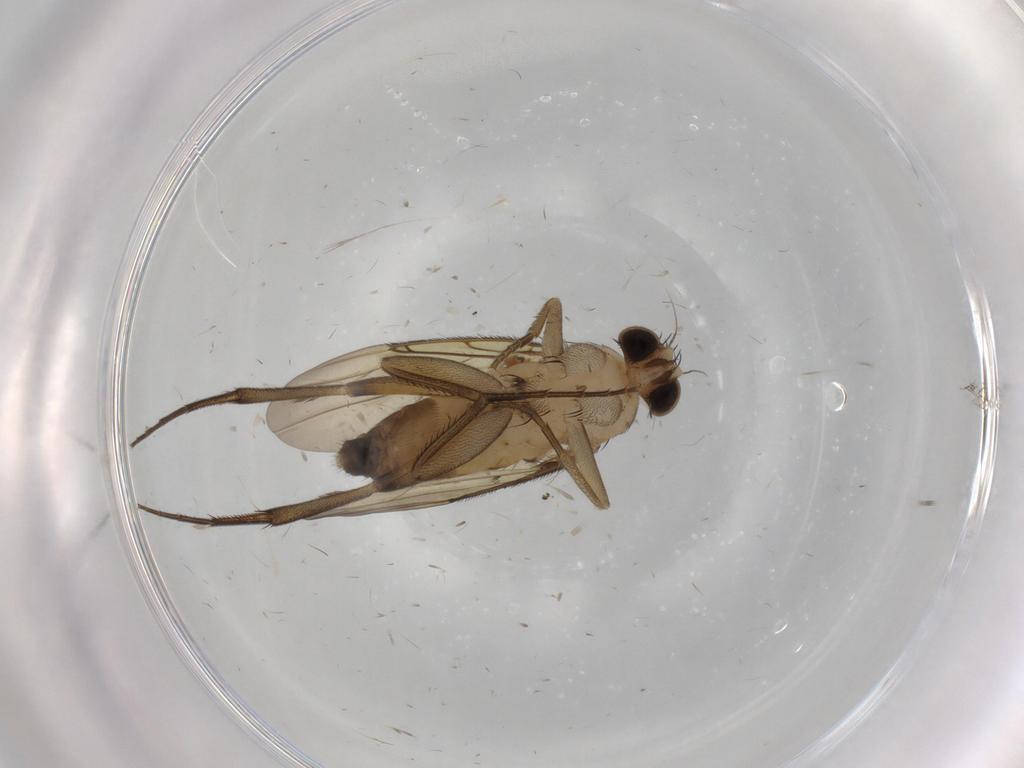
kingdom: Animalia
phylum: Arthropoda
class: Insecta
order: Diptera
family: Phoridae
